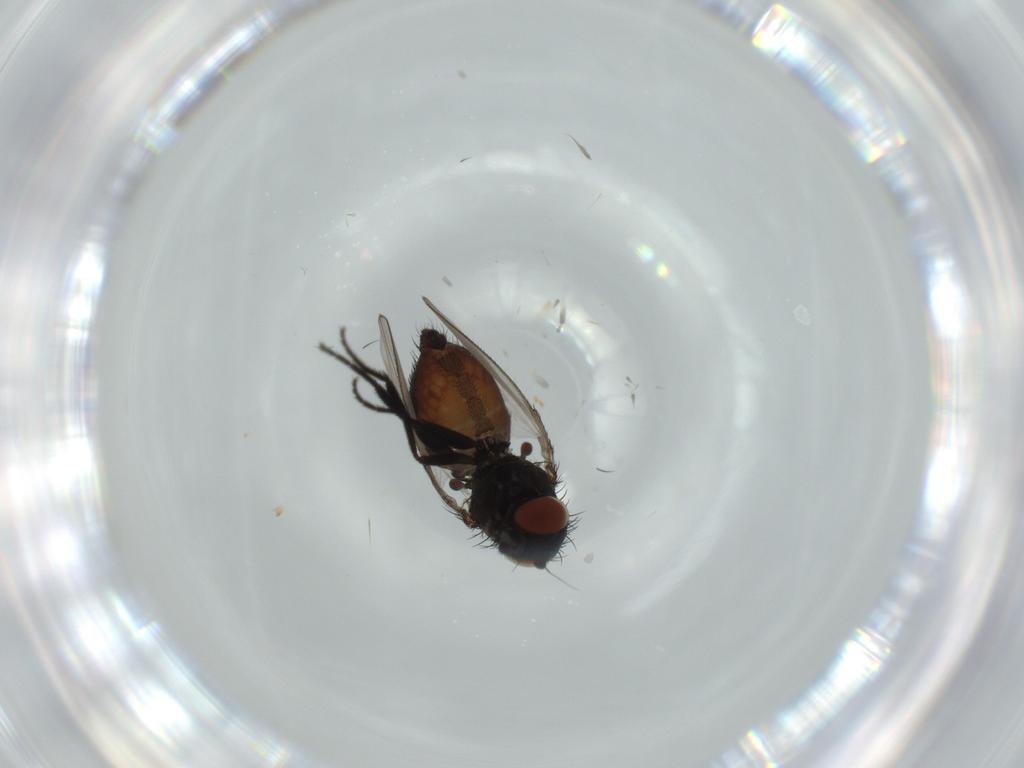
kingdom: Animalia
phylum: Arthropoda
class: Insecta
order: Diptera
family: Milichiidae
